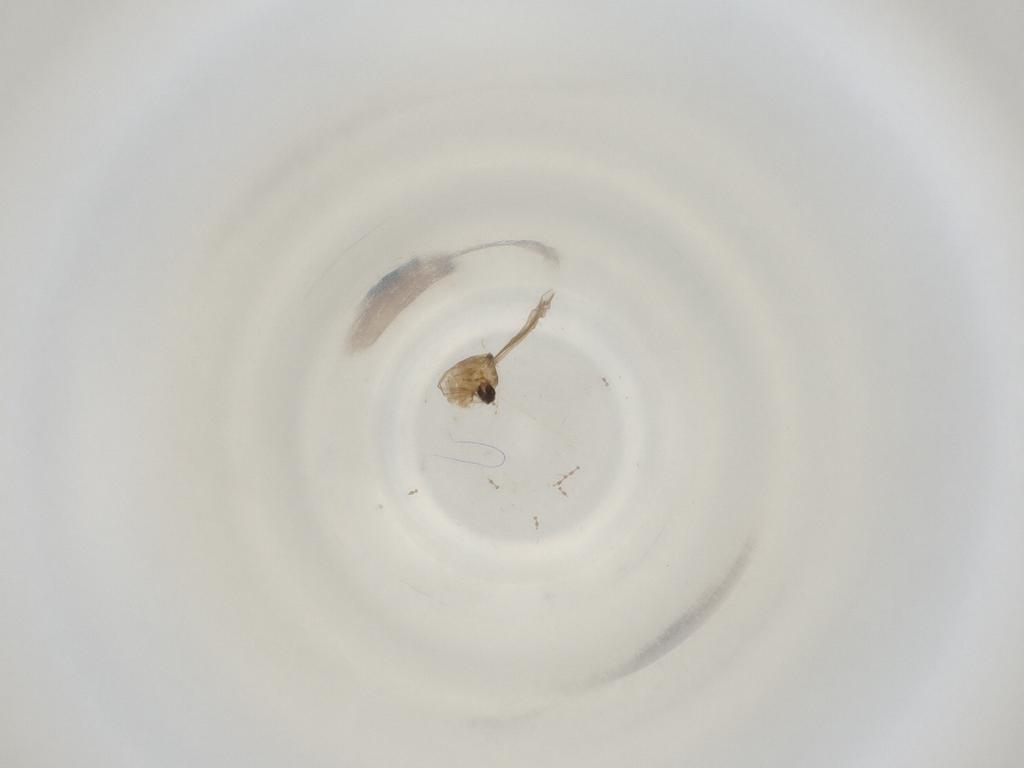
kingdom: Animalia
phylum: Arthropoda
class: Insecta
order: Diptera
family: Cecidomyiidae
